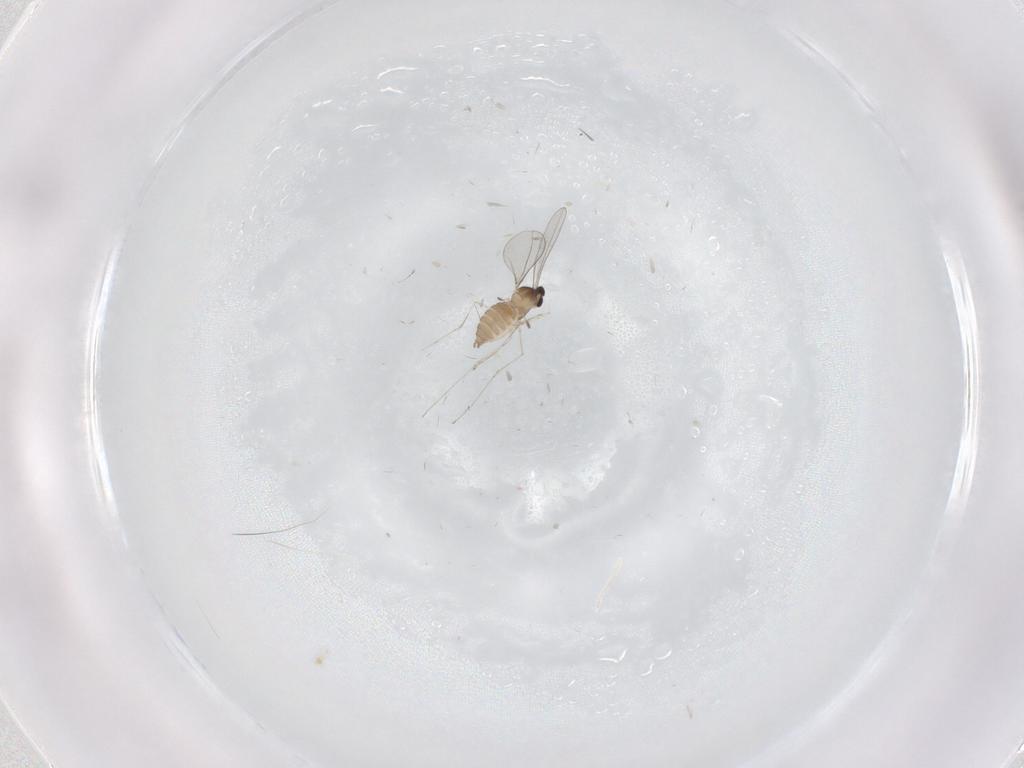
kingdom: Animalia
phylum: Arthropoda
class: Insecta
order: Diptera
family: Cecidomyiidae
